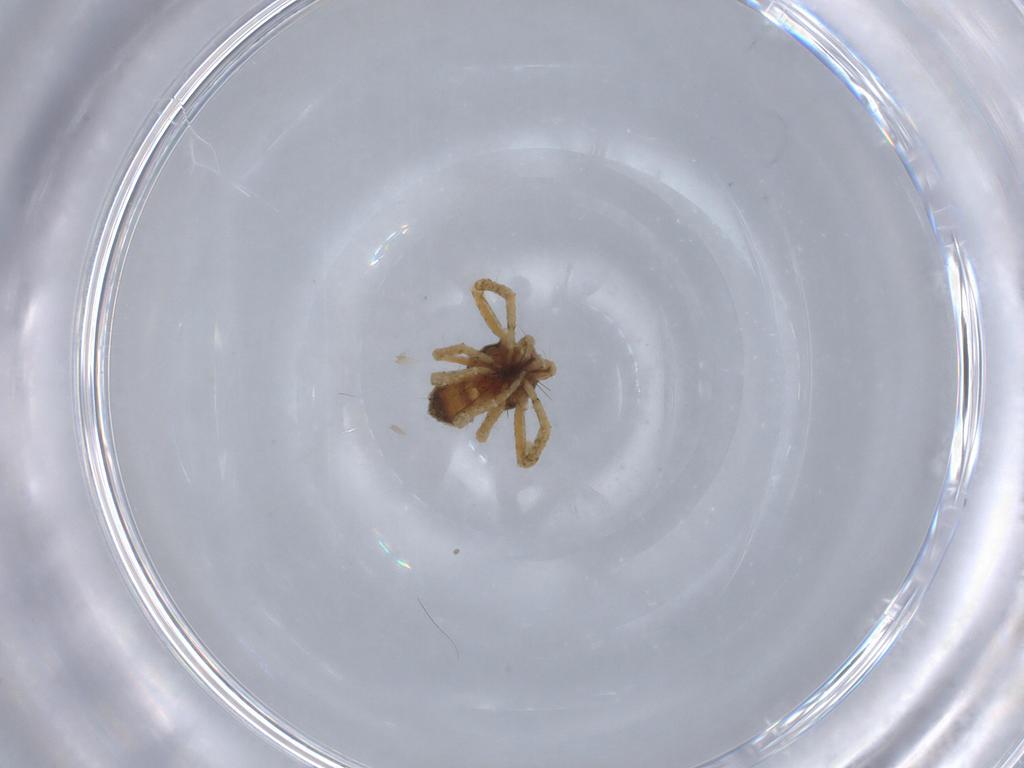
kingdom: Animalia
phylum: Arthropoda
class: Arachnida
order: Araneae
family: Thomisidae
